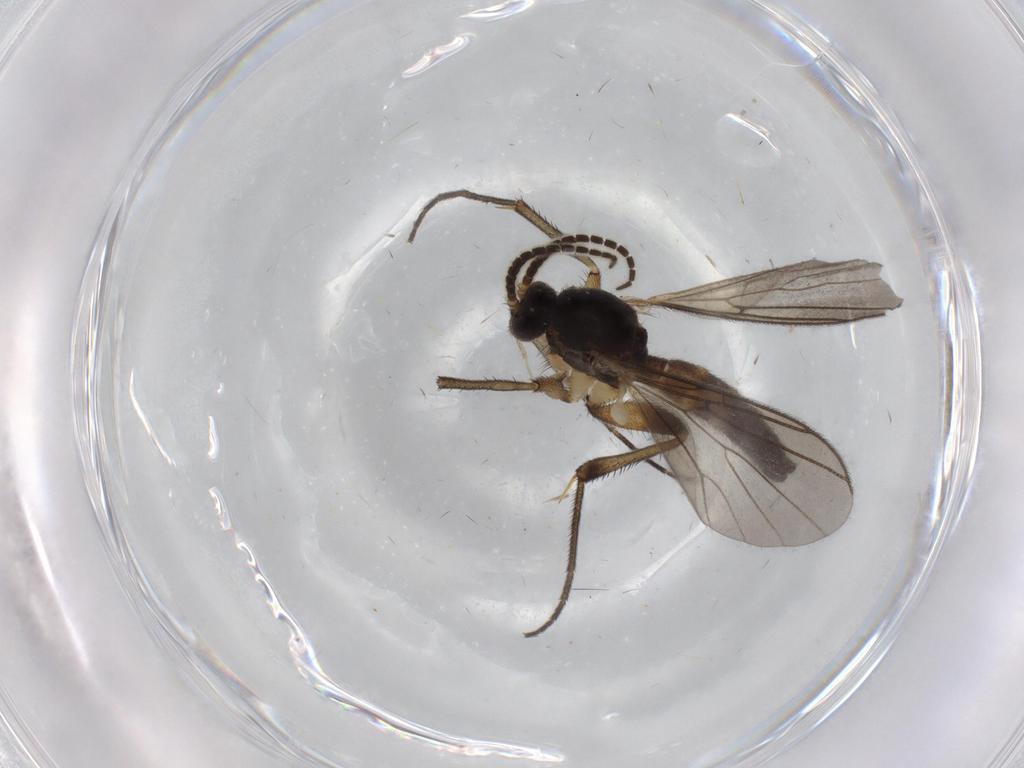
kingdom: Animalia
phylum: Arthropoda
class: Insecta
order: Diptera
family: Mycetophilidae
